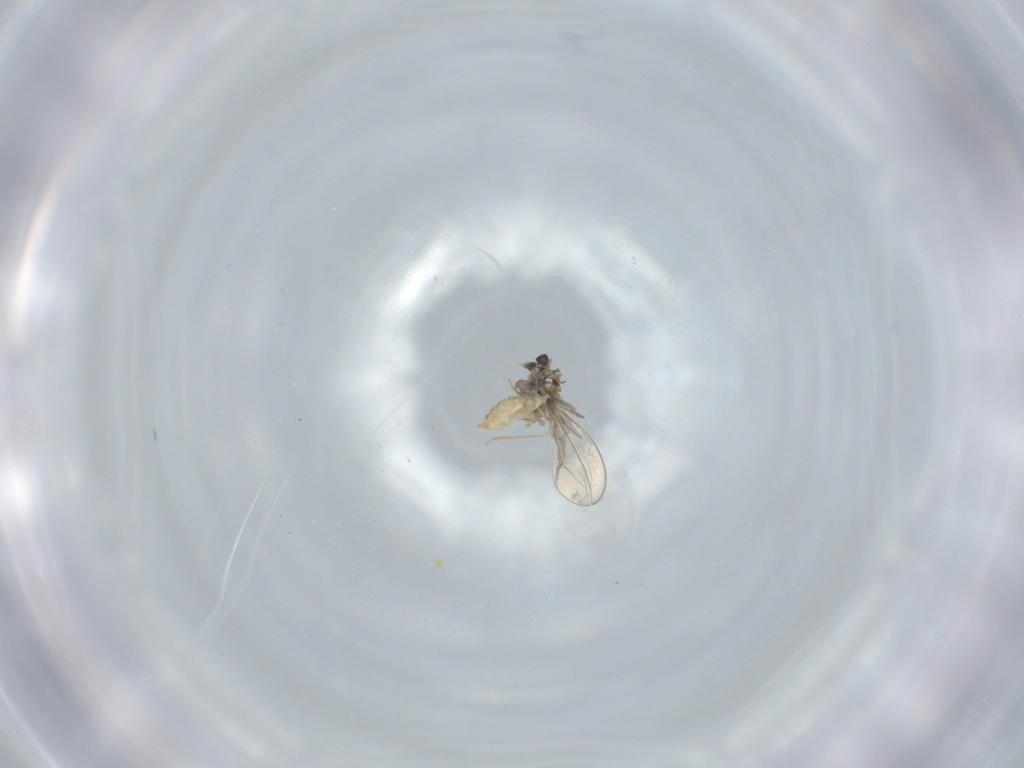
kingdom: Animalia
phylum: Arthropoda
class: Insecta
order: Diptera
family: Cecidomyiidae
